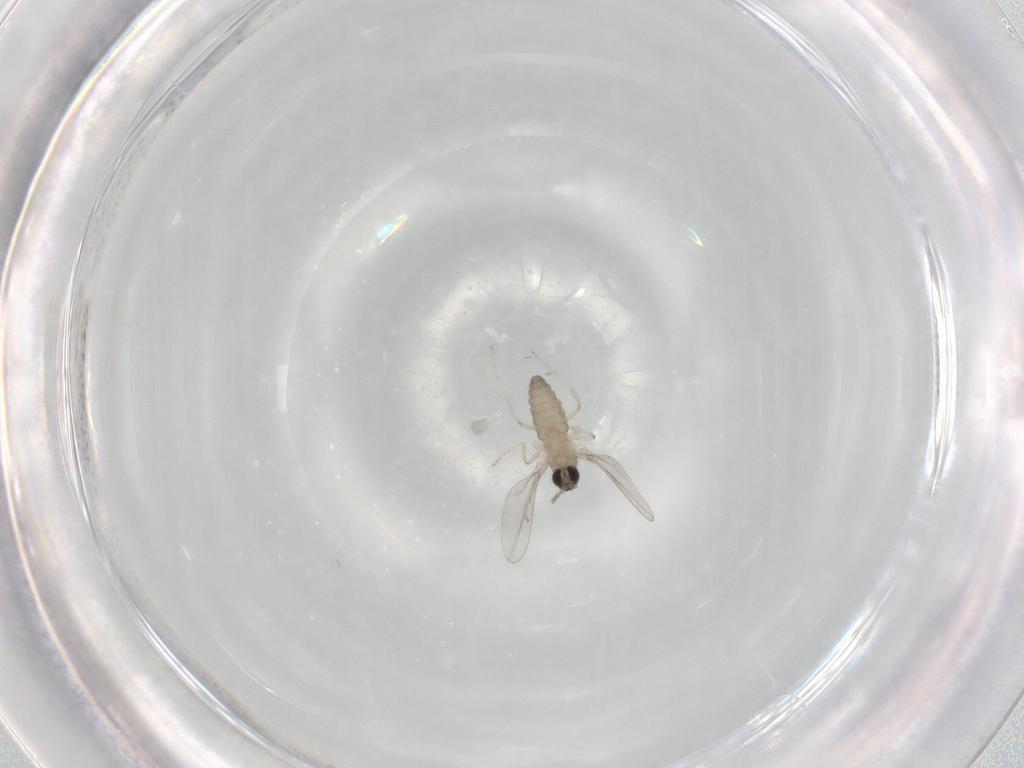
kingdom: Animalia
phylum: Arthropoda
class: Insecta
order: Diptera
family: Cecidomyiidae
